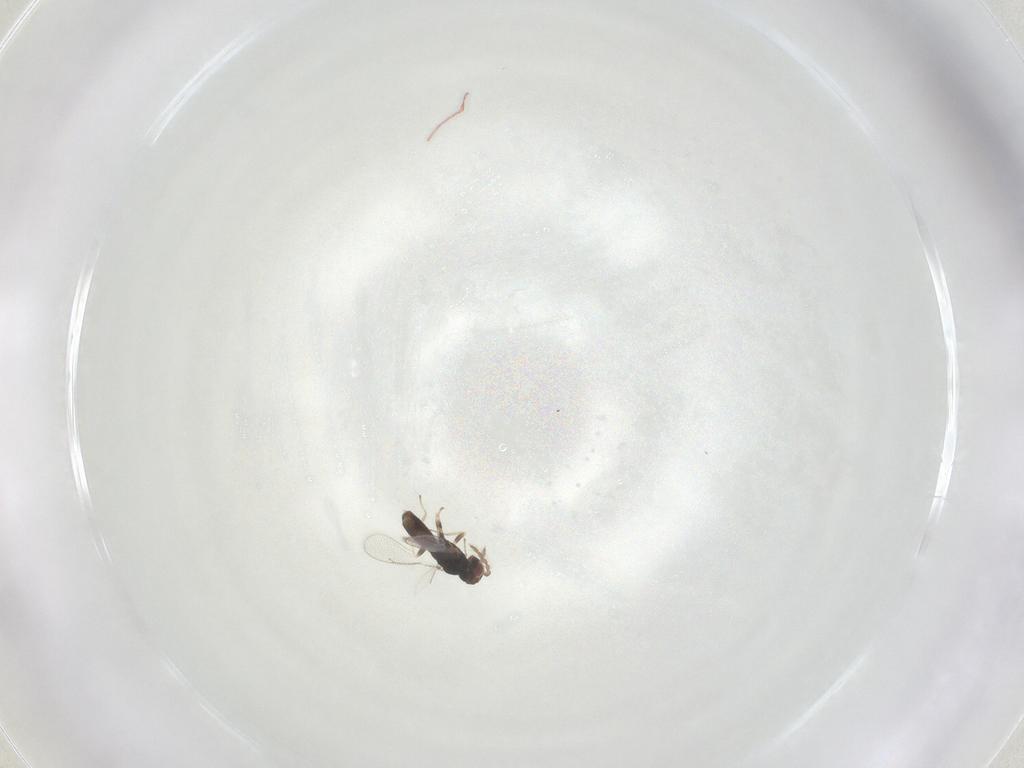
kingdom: Animalia
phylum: Arthropoda
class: Insecta
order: Hymenoptera
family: Eulophidae
